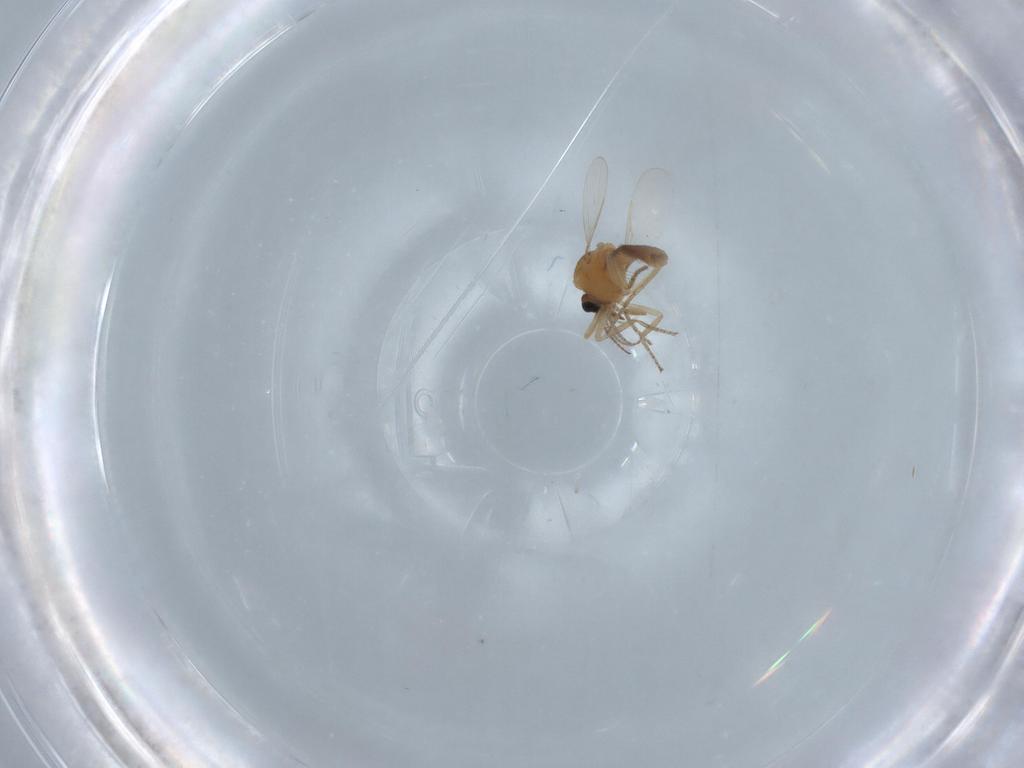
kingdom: Animalia
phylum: Arthropoda
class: Insecta
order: Diptera
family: Chironomidae
